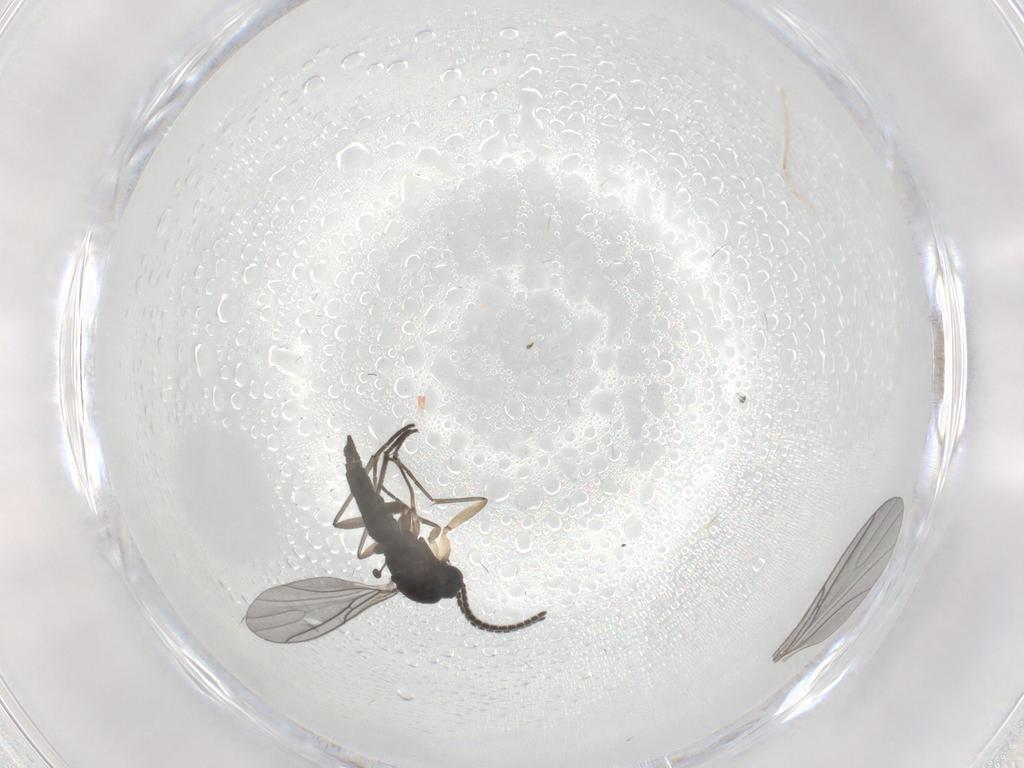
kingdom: Animalia
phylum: Arthropoda
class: Insecta
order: Diptera
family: Sciaridae
